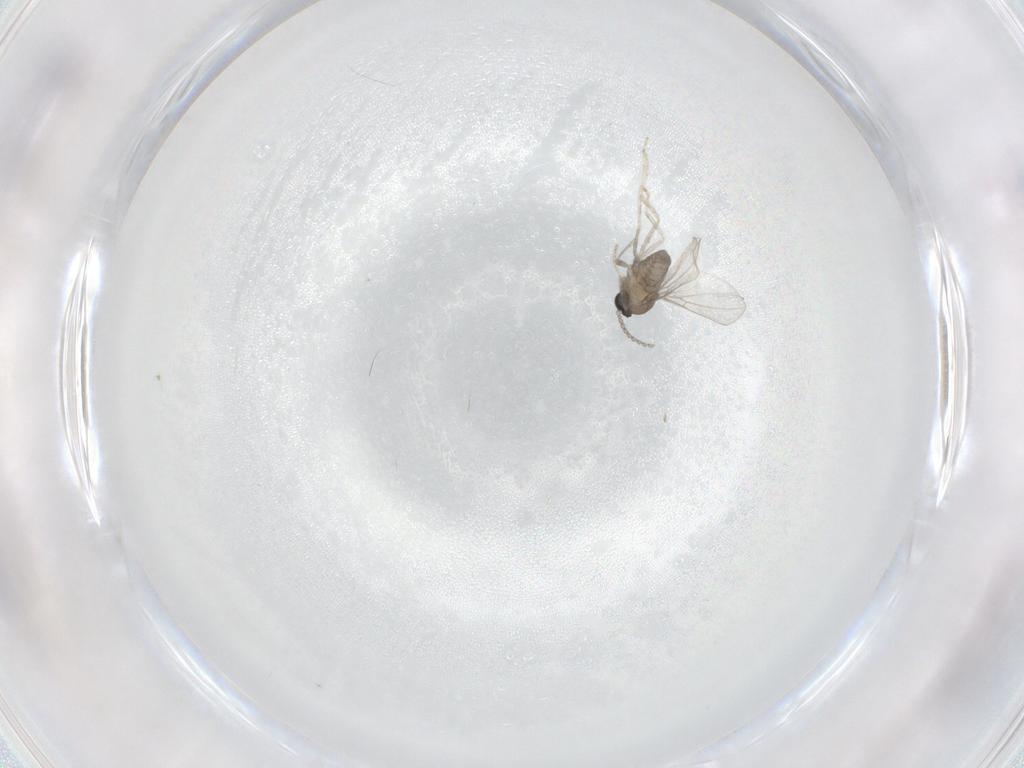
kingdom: Animalia
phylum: Arthropoda
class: Insecta
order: Diptera
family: Cecidomyiidae
